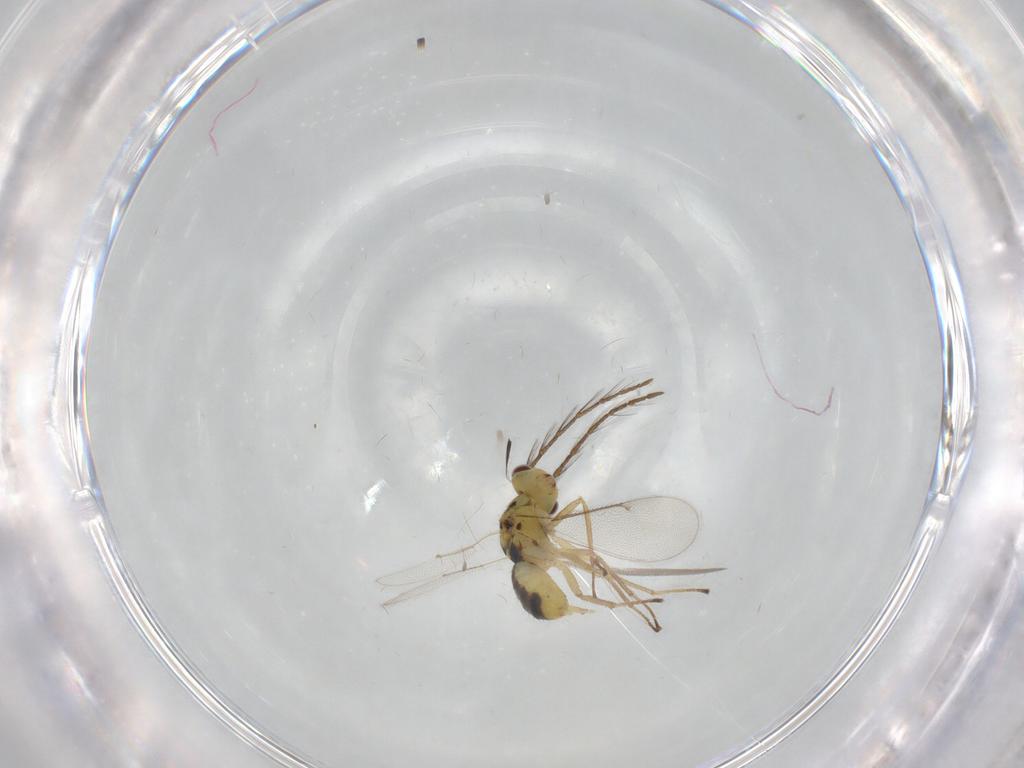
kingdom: Animalia
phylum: Arthropoda
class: Insecta
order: Hymenoptera
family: Eulophidae
